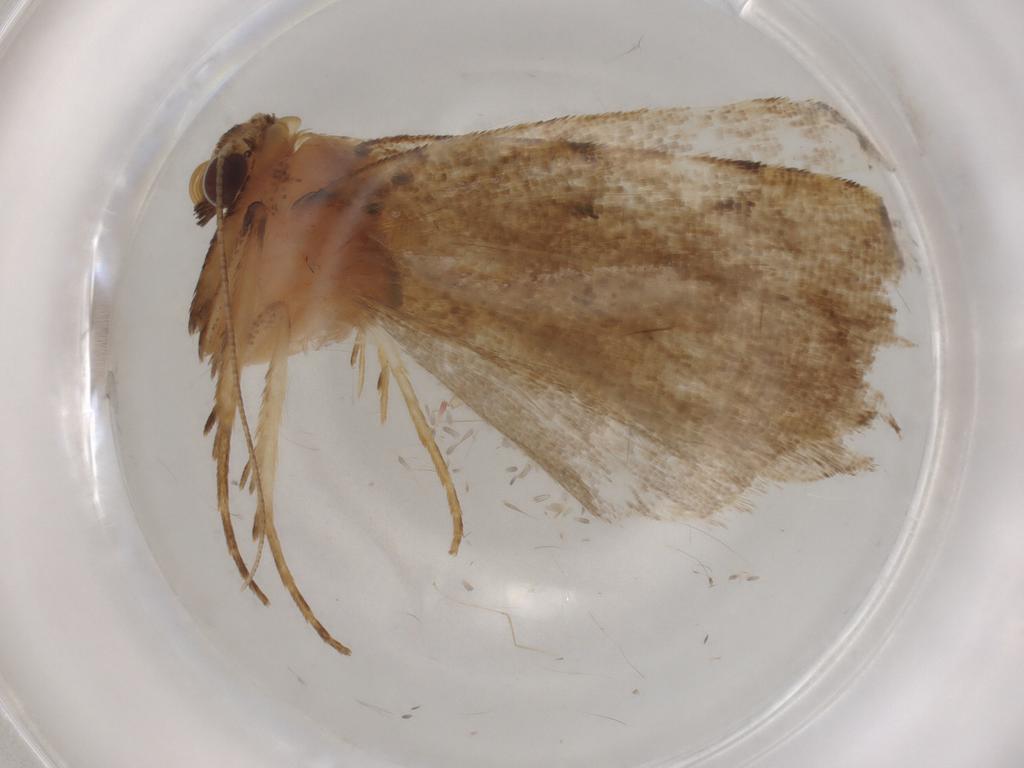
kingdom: Animalia
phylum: Arthropoda
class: Insecta
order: Lepidoptera
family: Erebidae
